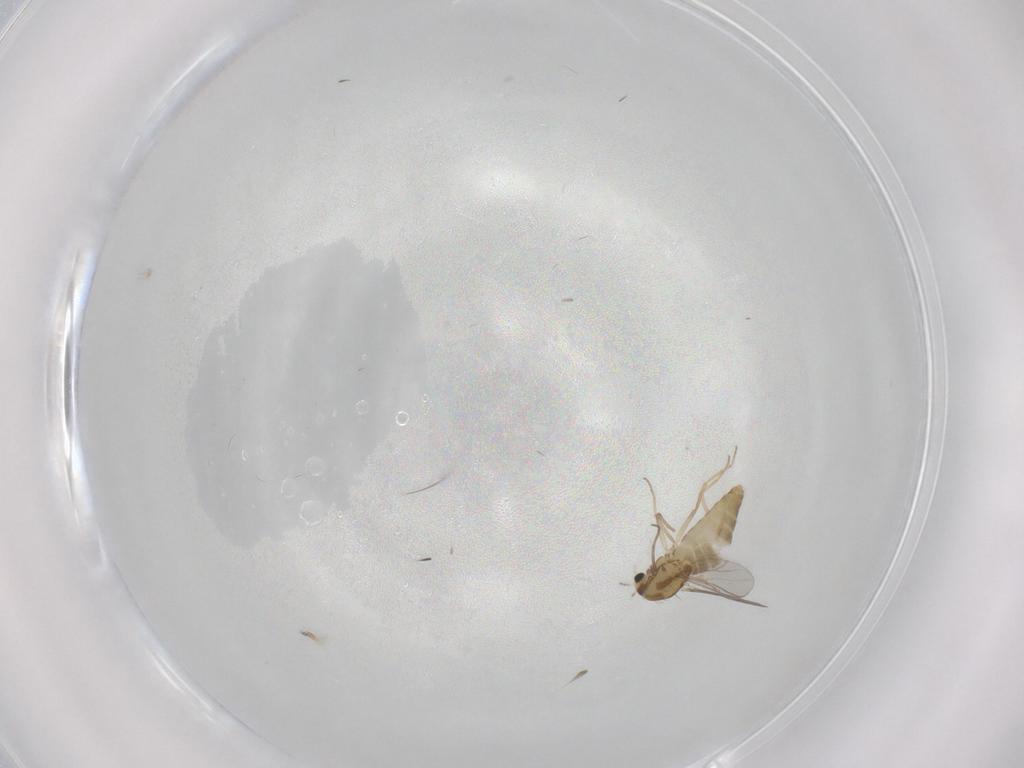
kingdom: Animalia
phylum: Arthropoda
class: Insecta
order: Diptera
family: Chironomidae
